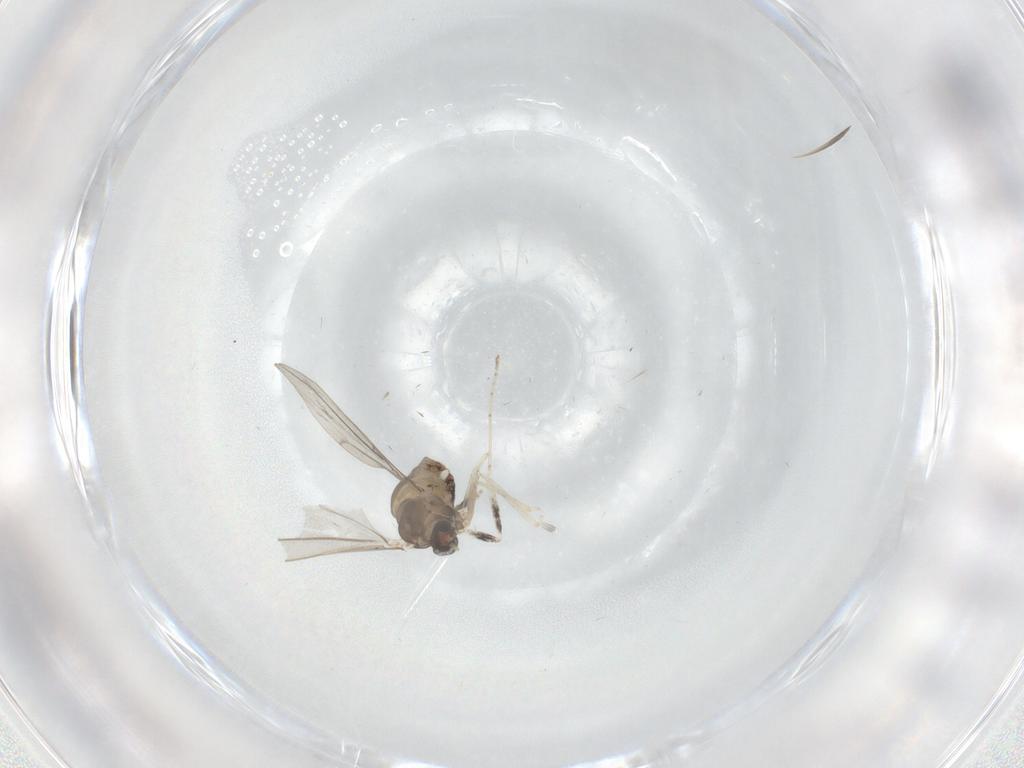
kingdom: Animalia
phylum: Arthropoda
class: Insecta
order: Diptera
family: Cecidomyiidae
